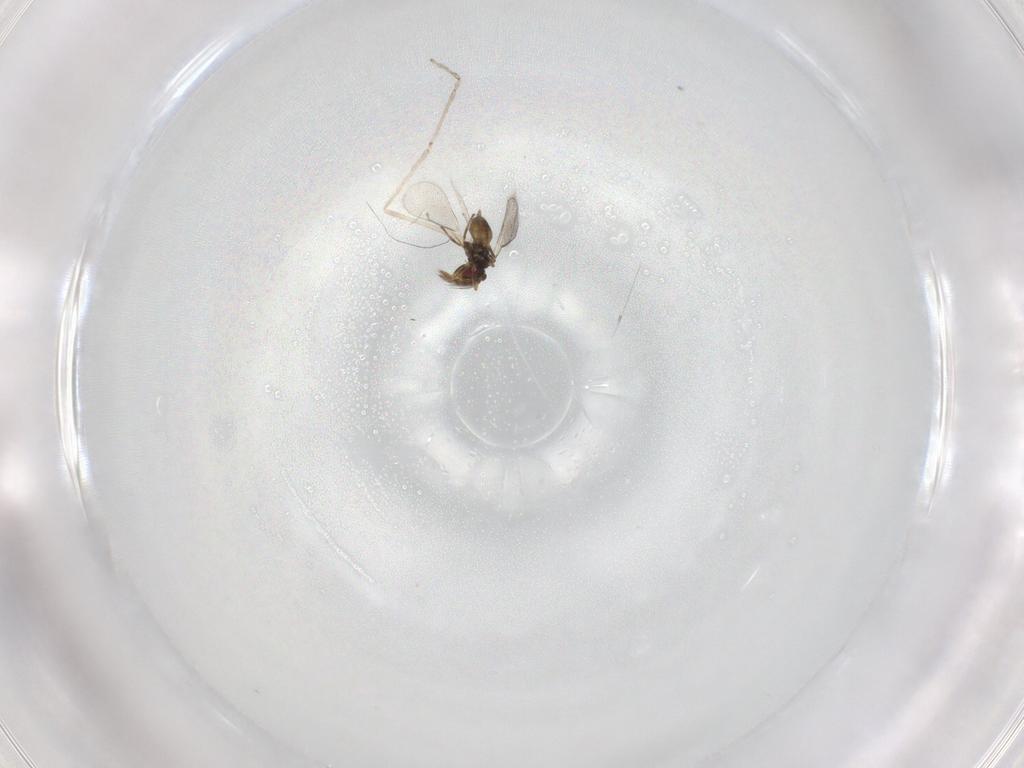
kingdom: Animalia
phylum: Arthropoda
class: Insecta
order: Hymenoptera
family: Eulophidae
